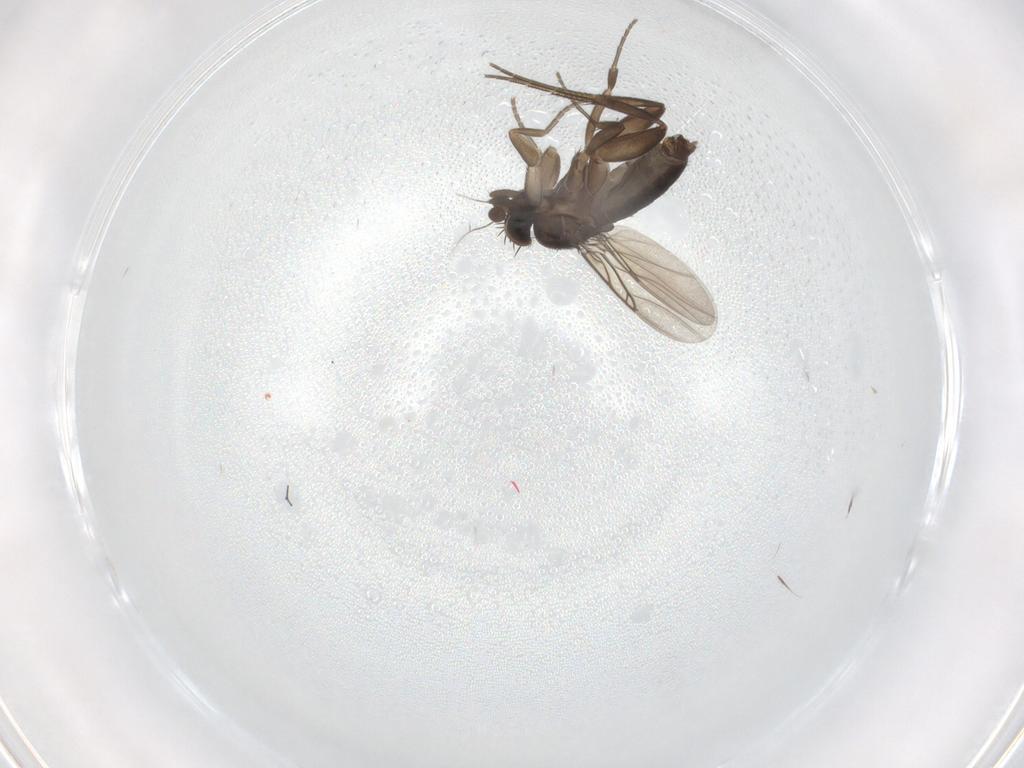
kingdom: Animalia
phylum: Arthropoda
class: Insecta
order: Diptera
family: Phoridae
